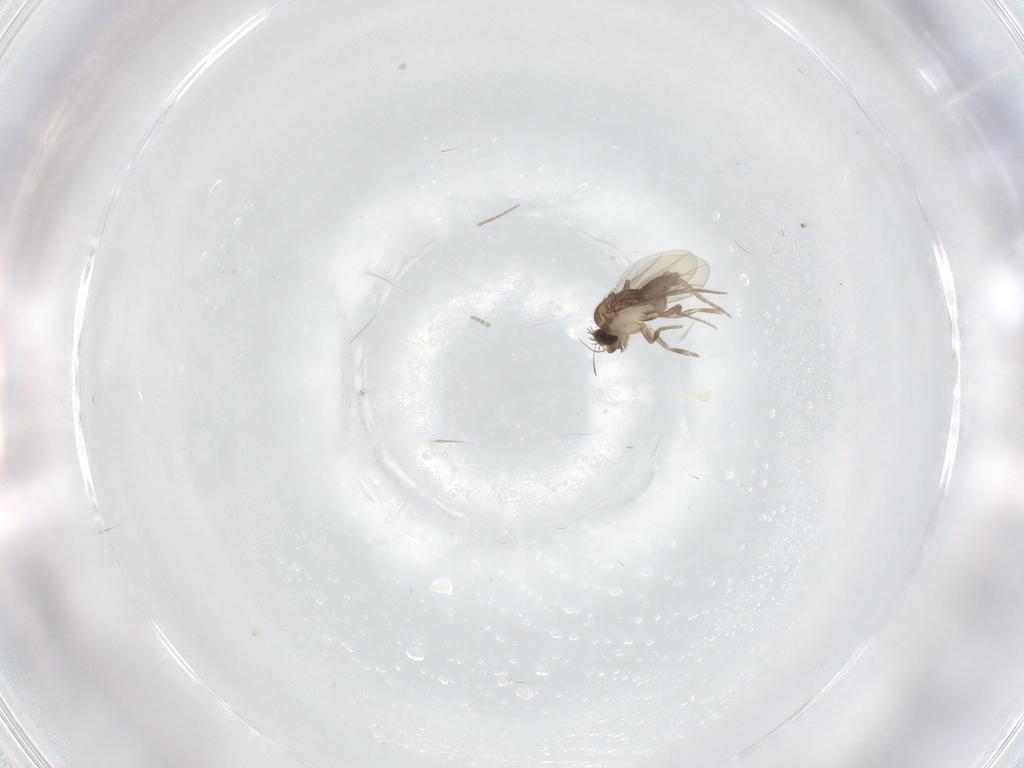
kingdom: Animalia
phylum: Arthropoda
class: Insecta
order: Diptera
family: Phoridae
